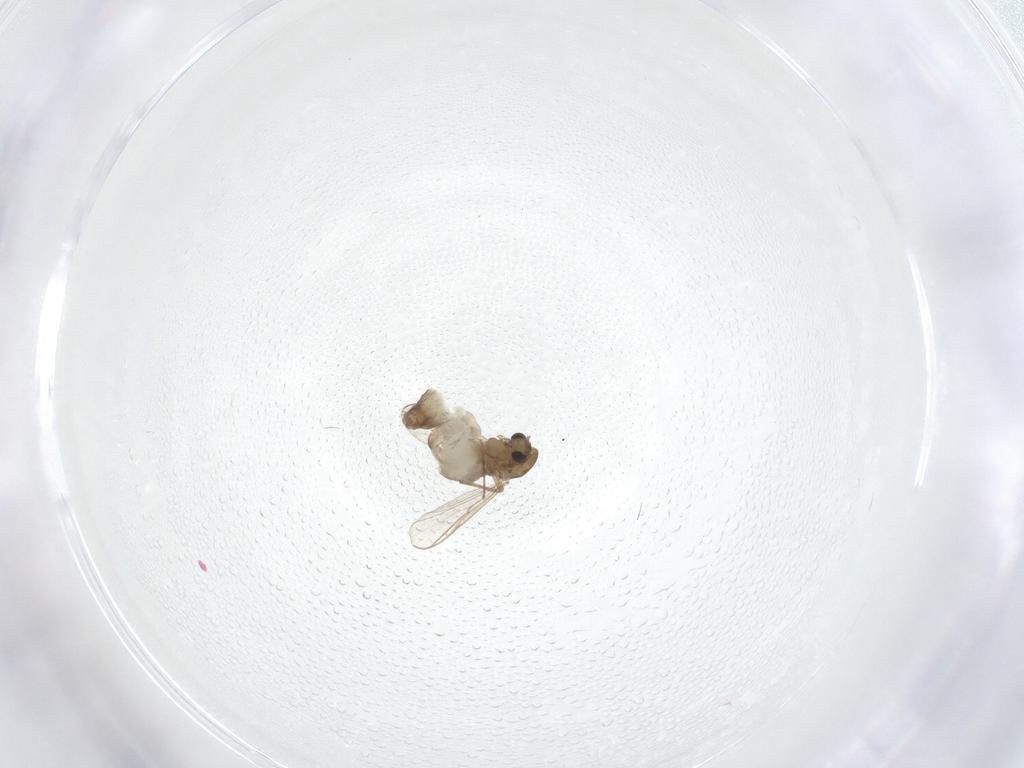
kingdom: Animalia
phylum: Arthropoda
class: Insecta
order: Diptera
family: Chironomidae
